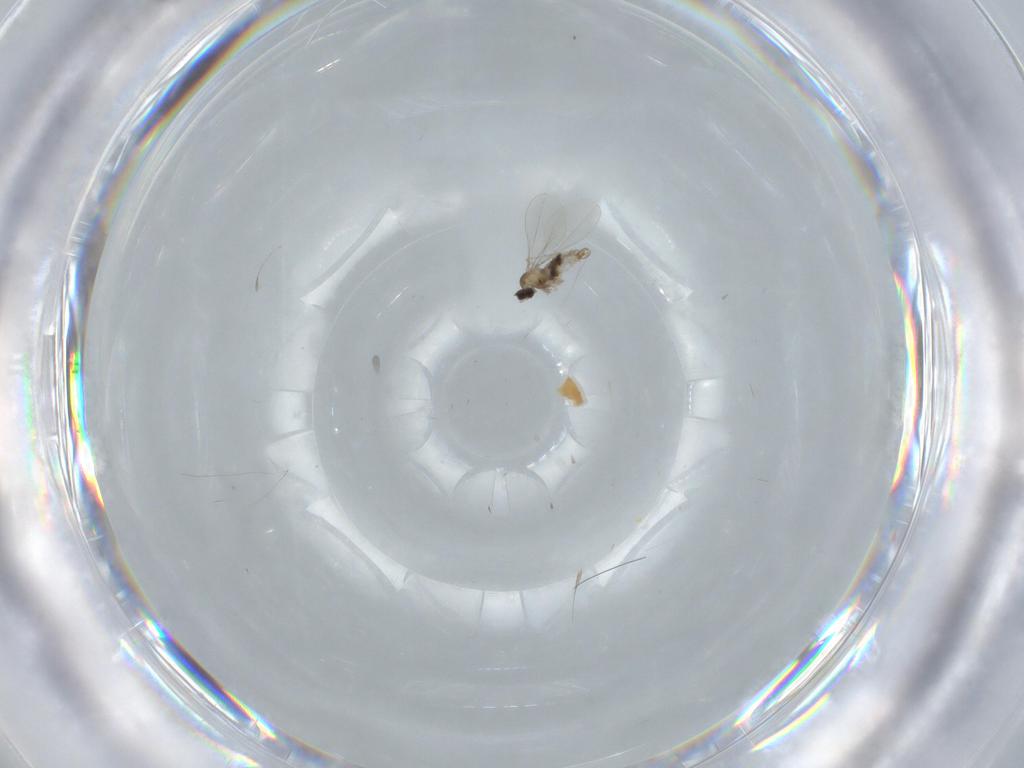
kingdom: Animalia
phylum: Arthropoda
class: Insecta
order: Diptera
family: Cecidomyiidae
